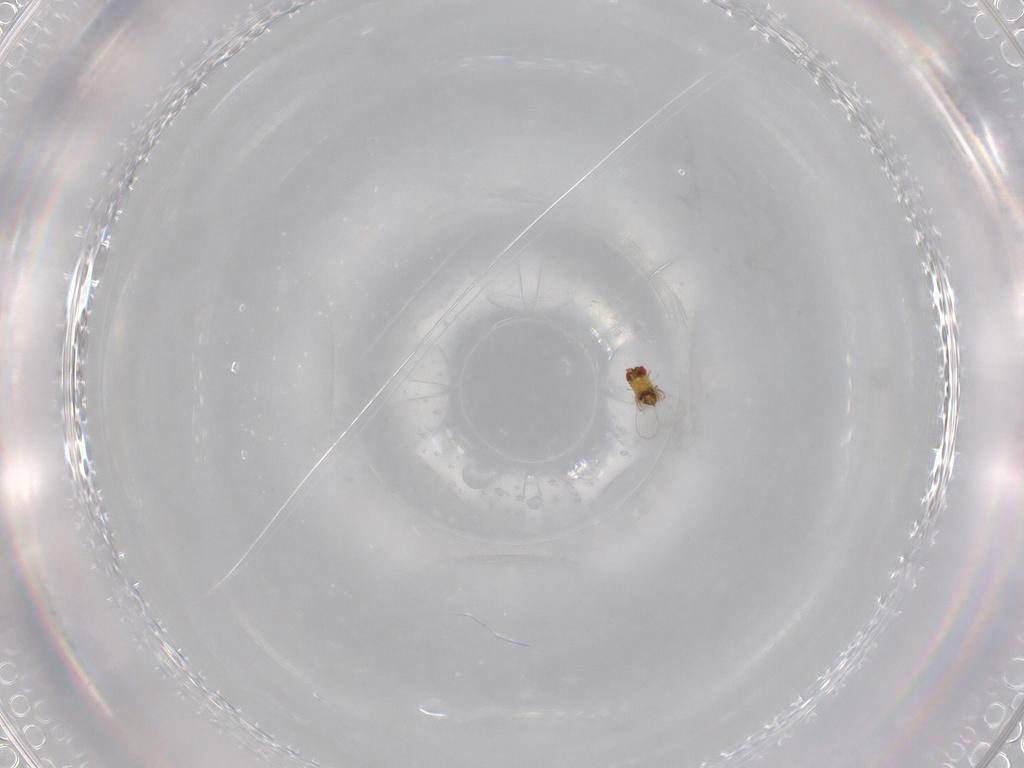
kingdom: Animalia
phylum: Arthropoda
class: Insecta
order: Hymenoptera
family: Trichogrammatidae
